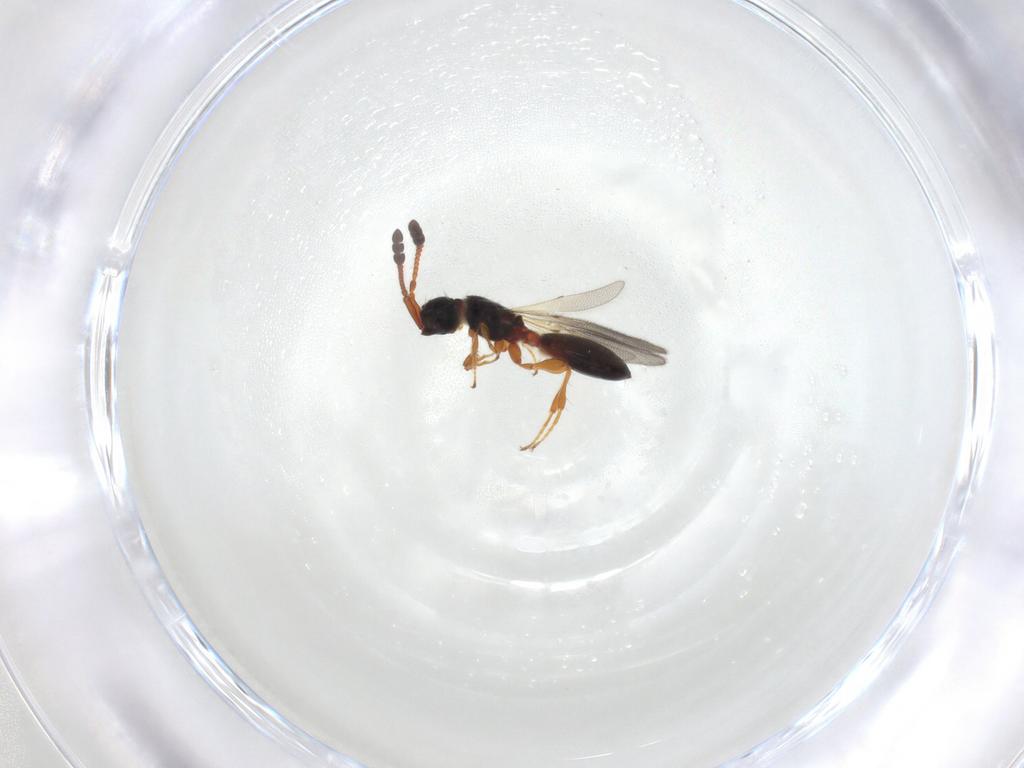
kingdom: Animalia
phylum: Arthropoda
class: Insecta
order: Hymenoptera
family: Diapriidae
